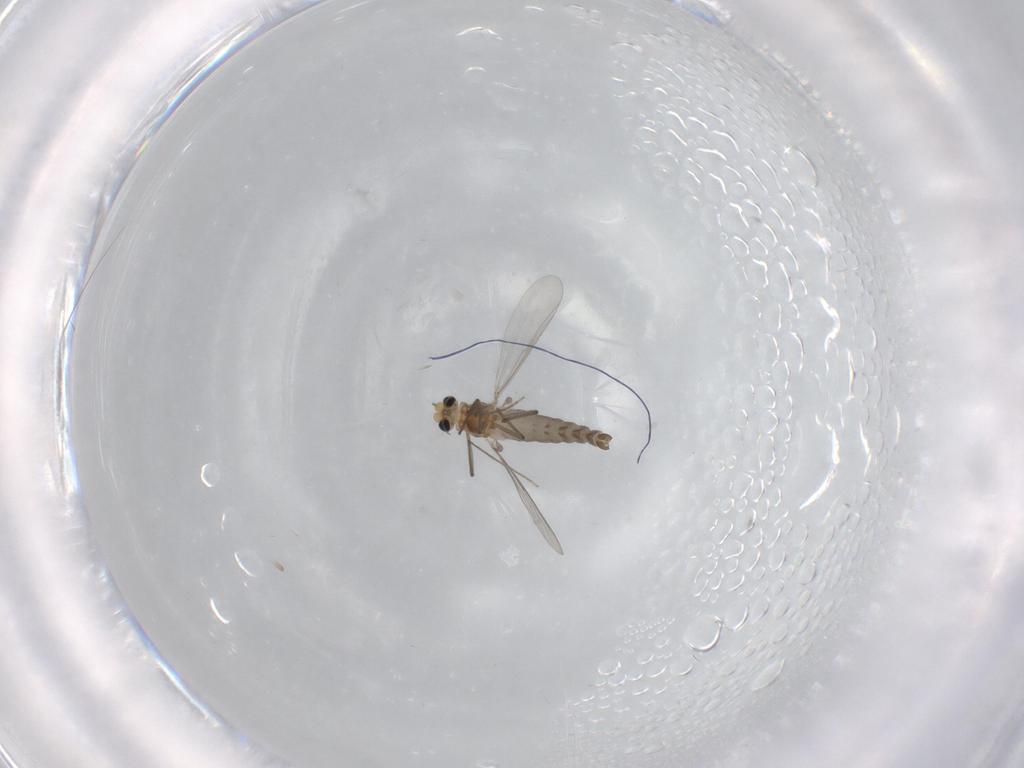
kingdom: Animalia
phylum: Arthropoda
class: Insecta
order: Diptera
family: Chironomidae
